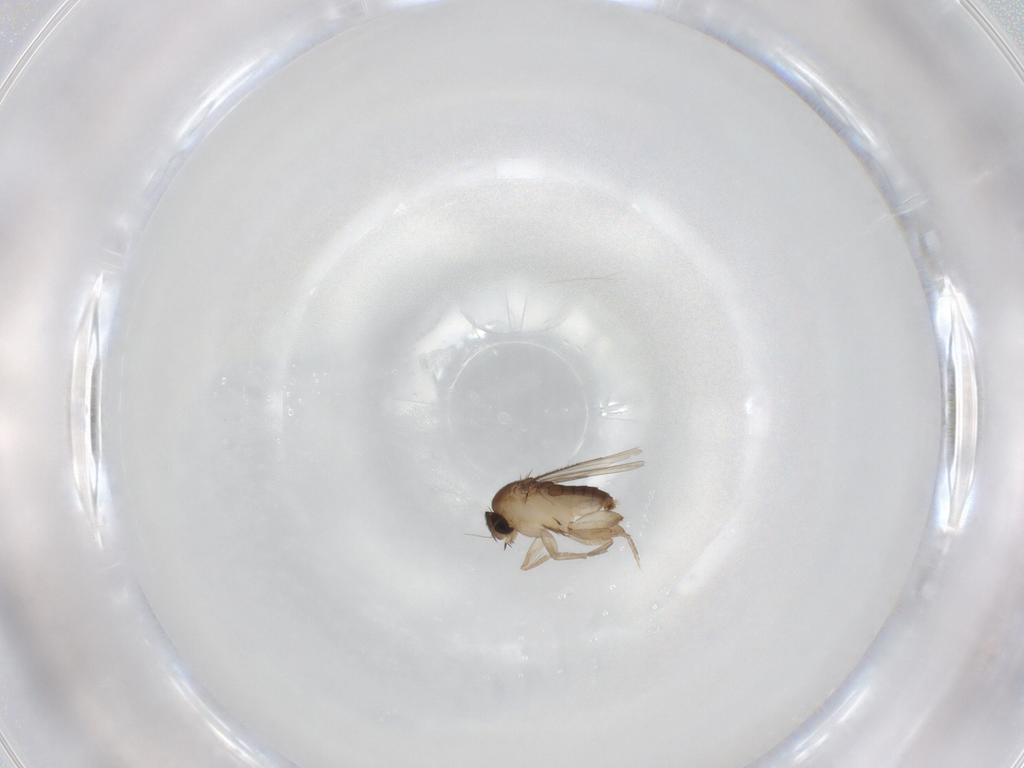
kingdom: Animalia
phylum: Arthropoda
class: Insecta
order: Diptera
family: Phoridae
